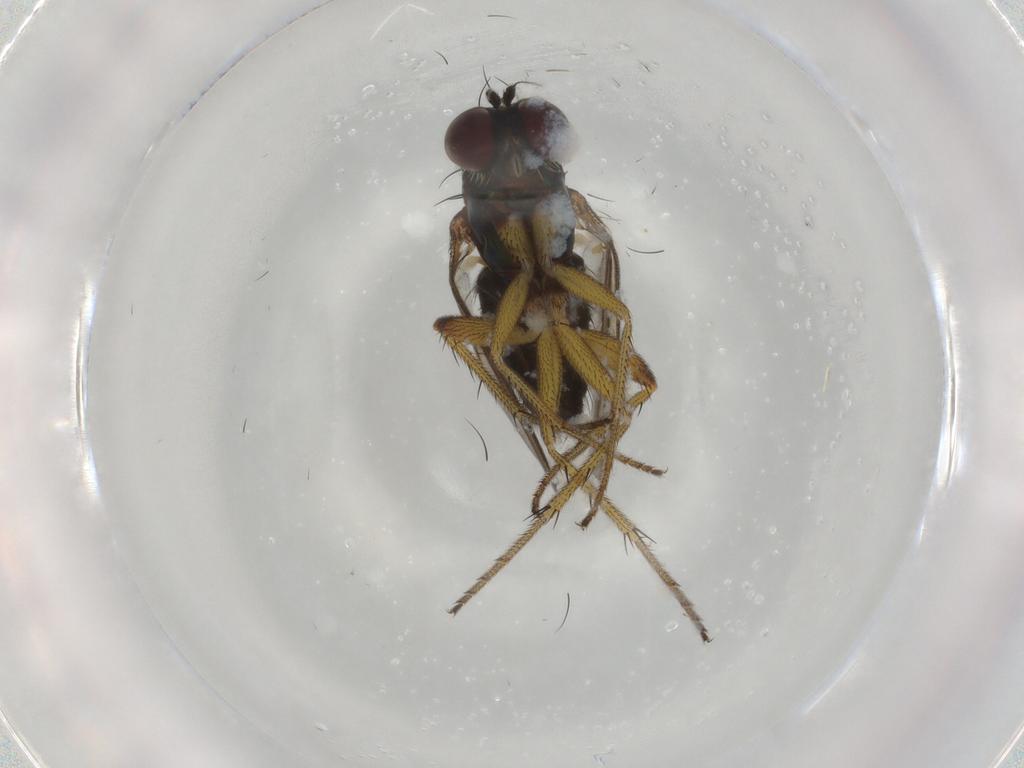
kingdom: Animalia
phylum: Arthropoda
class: Insecta
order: Diptera
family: Dolichopodidae
